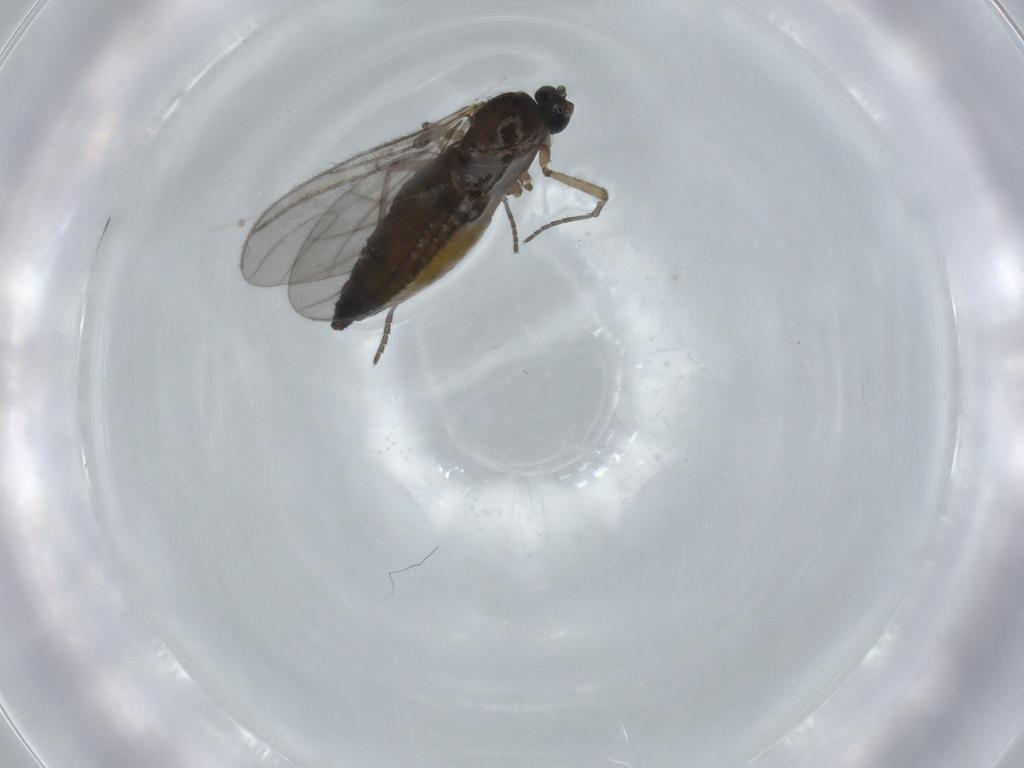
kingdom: Animalia
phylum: Arthropoda
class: Insecta
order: Diptera
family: Sciaridae
